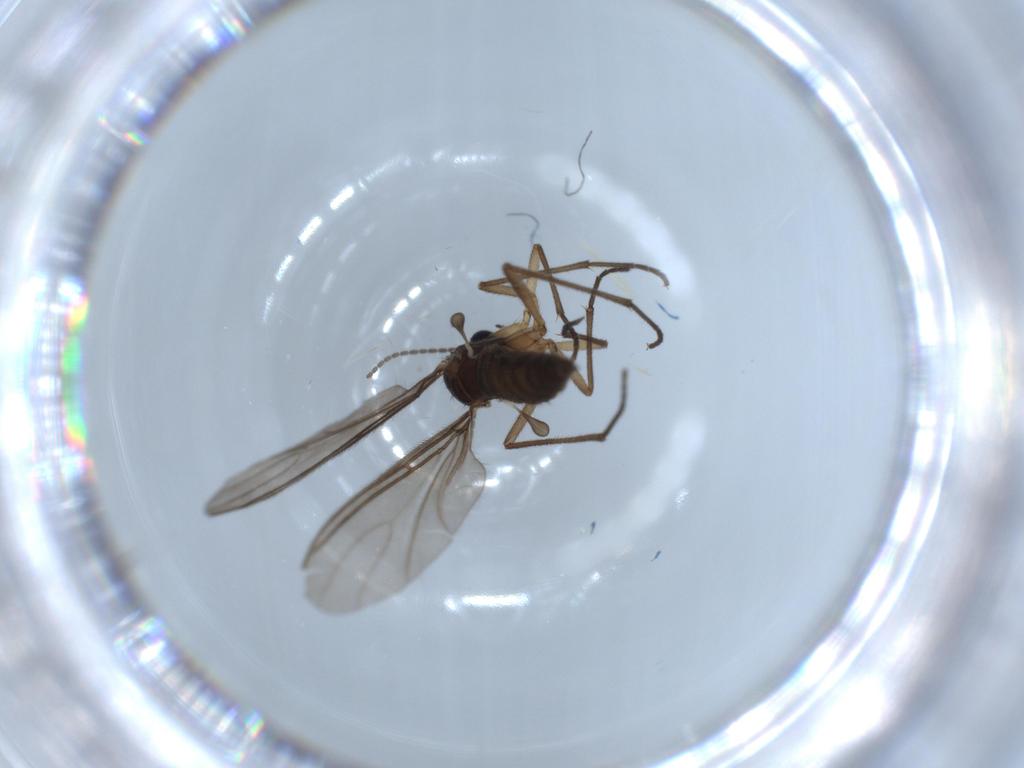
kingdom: Animalia
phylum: Arthropoda
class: Insecta
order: Diptera
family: Sciaridae
